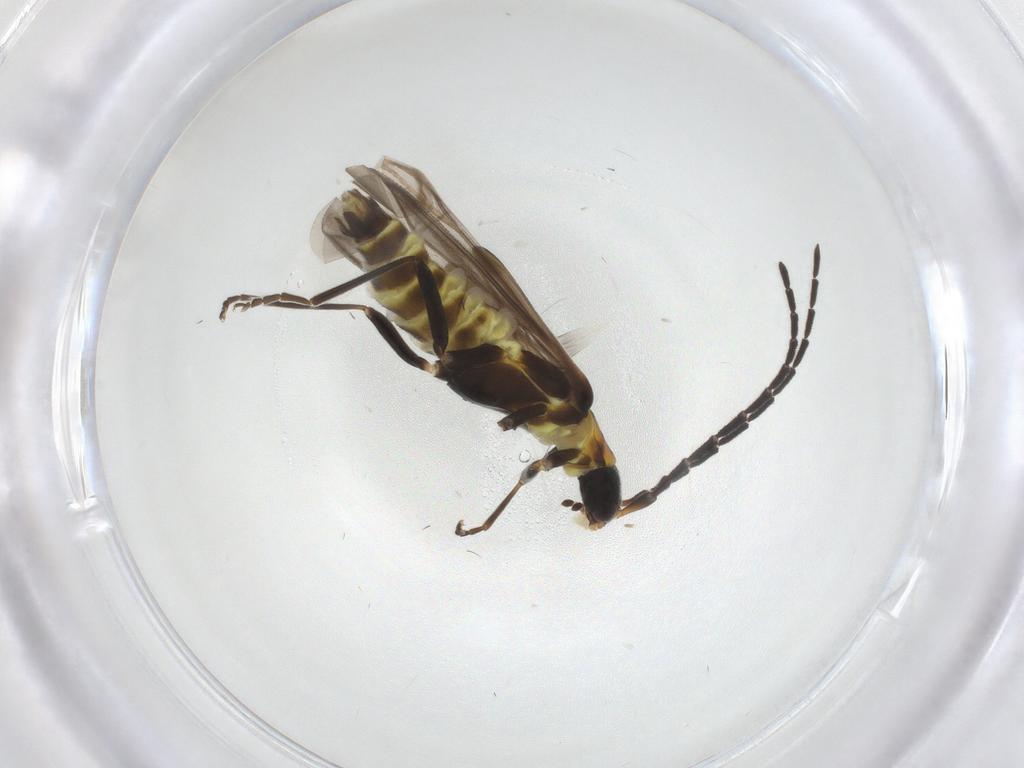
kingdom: Animalia
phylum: Arthropoda
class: Insecta
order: Coleoptera
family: Cantharidae
